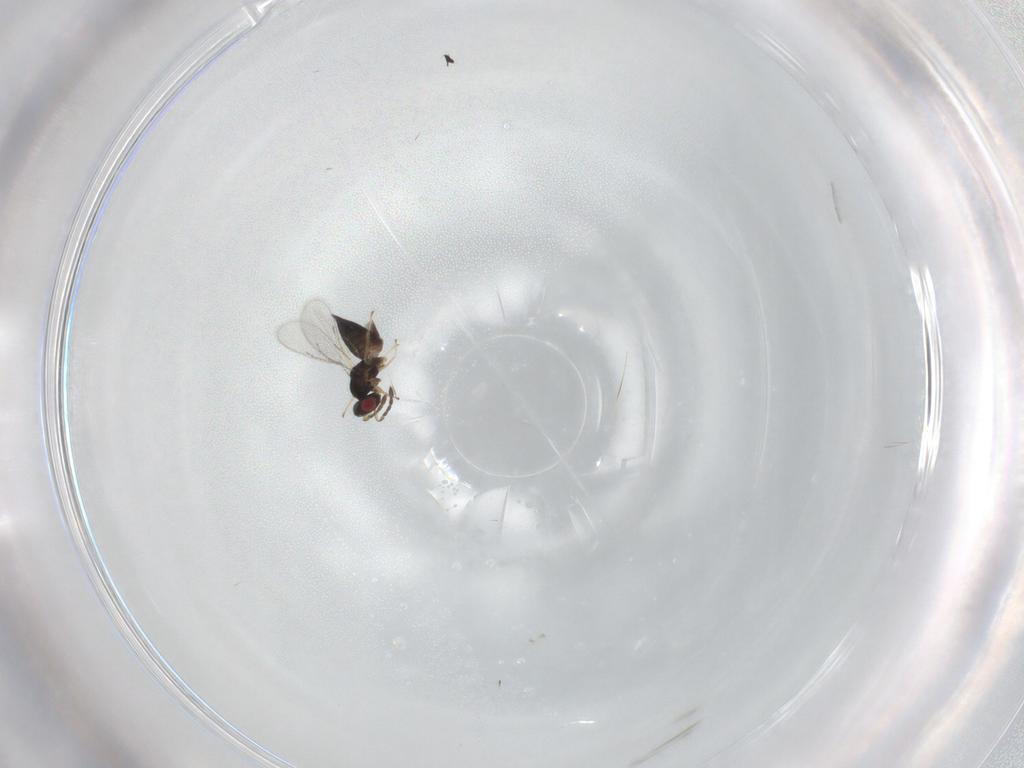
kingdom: Animalia
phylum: Arthropoda
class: Insecta
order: Hymenoptera
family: Eulophidae
